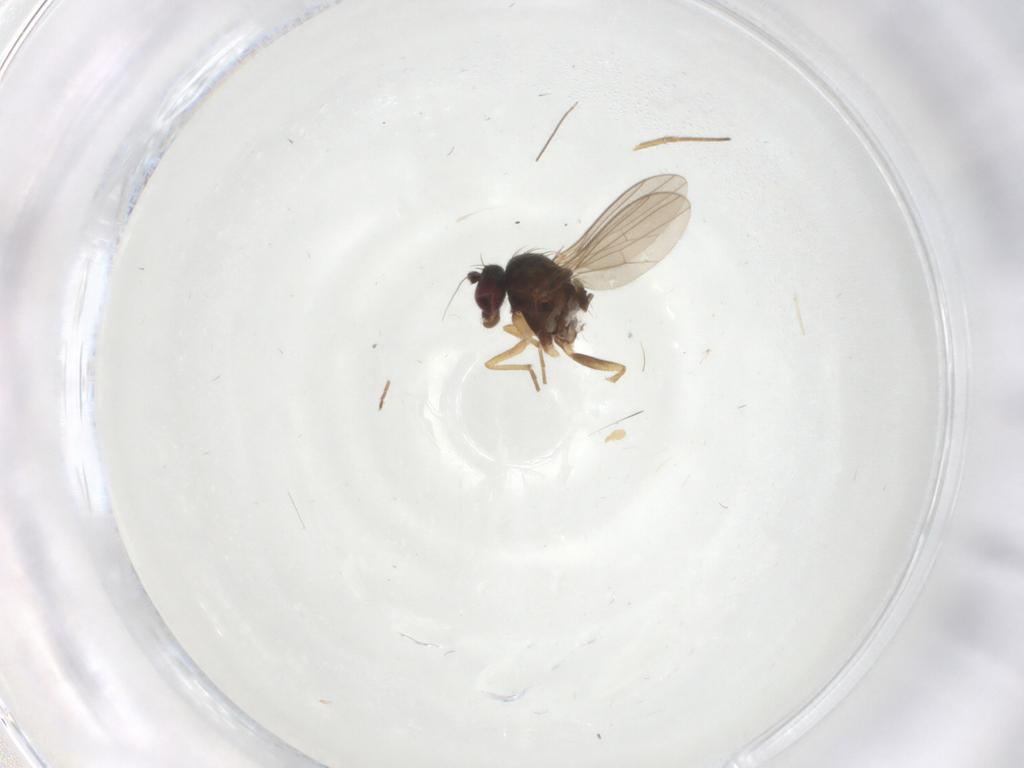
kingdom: Animalia
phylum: Arthropoda
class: Insecta
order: Diptera
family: Dolichopodidae
